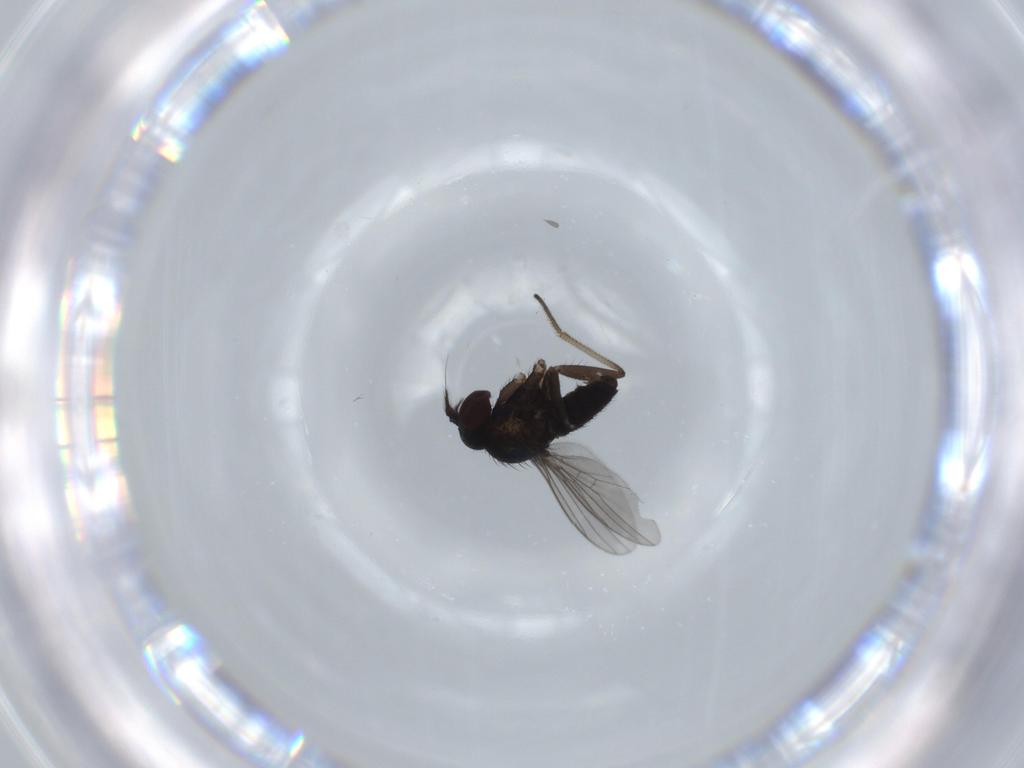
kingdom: Animalia
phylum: Arthropoda
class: Insecta
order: Diptera
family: Dolichopodidae
